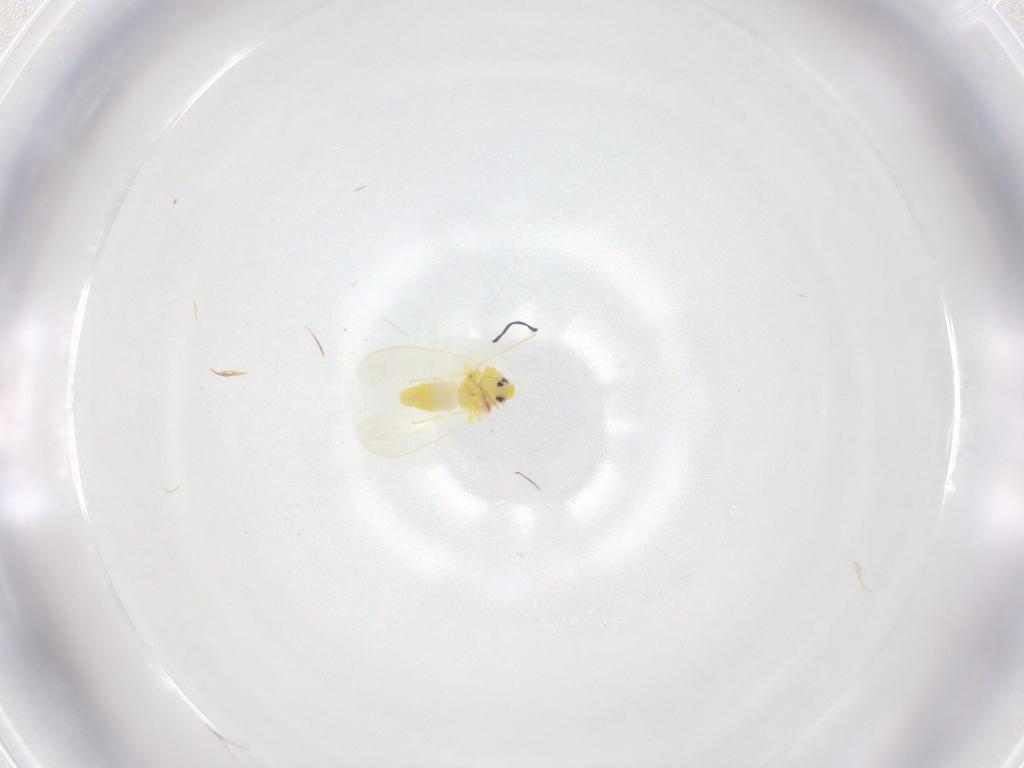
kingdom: Animalia
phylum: Arthropoda
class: Insecta
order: Hemiptera
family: Aleyrodidae
